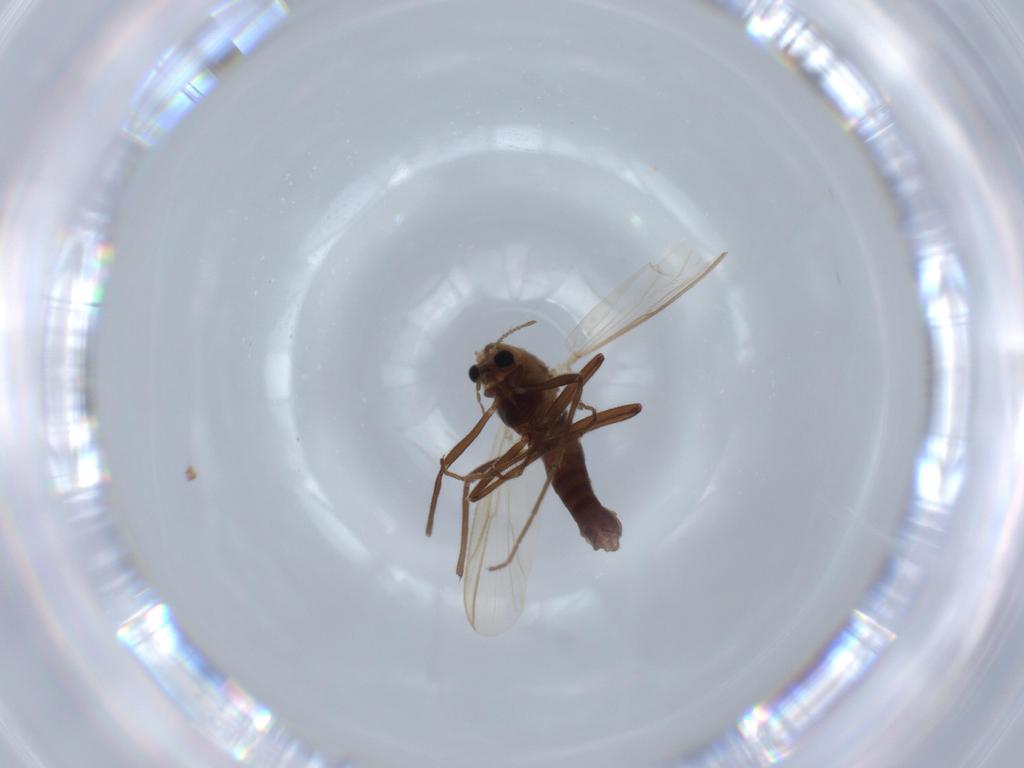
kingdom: Animalia
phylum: Arthropoda
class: Insecta
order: Diptera
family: Chironomidae
